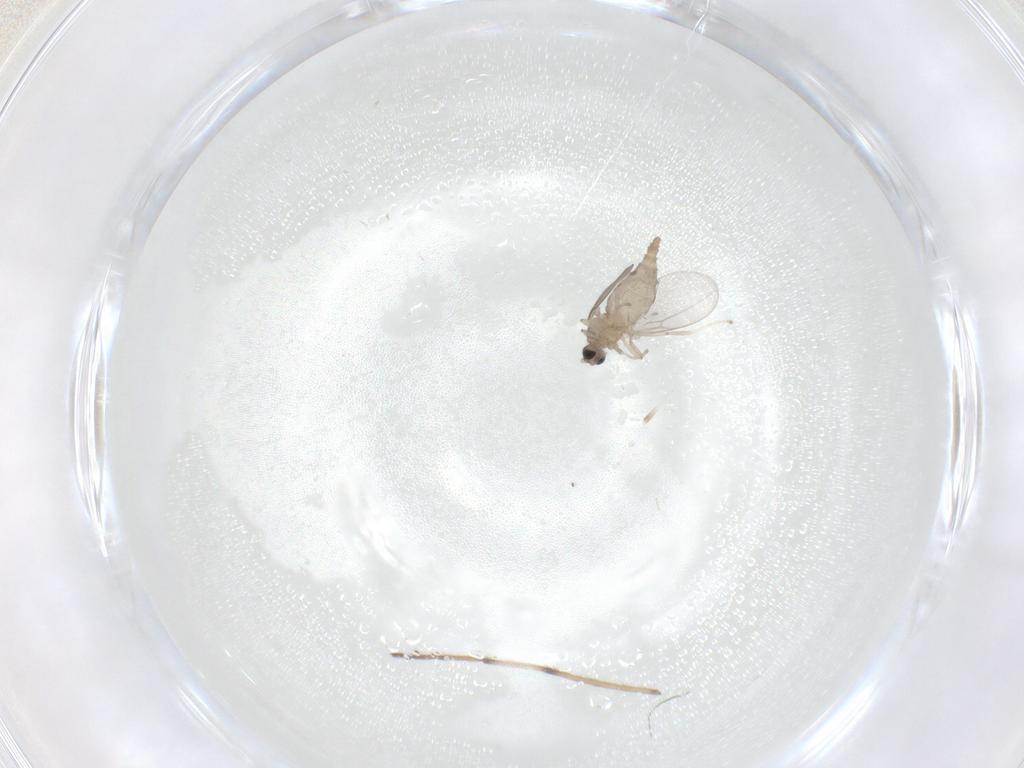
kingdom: Animalia
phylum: Arthropoda
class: Insecta
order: Diptera
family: Cecidomyiidae
